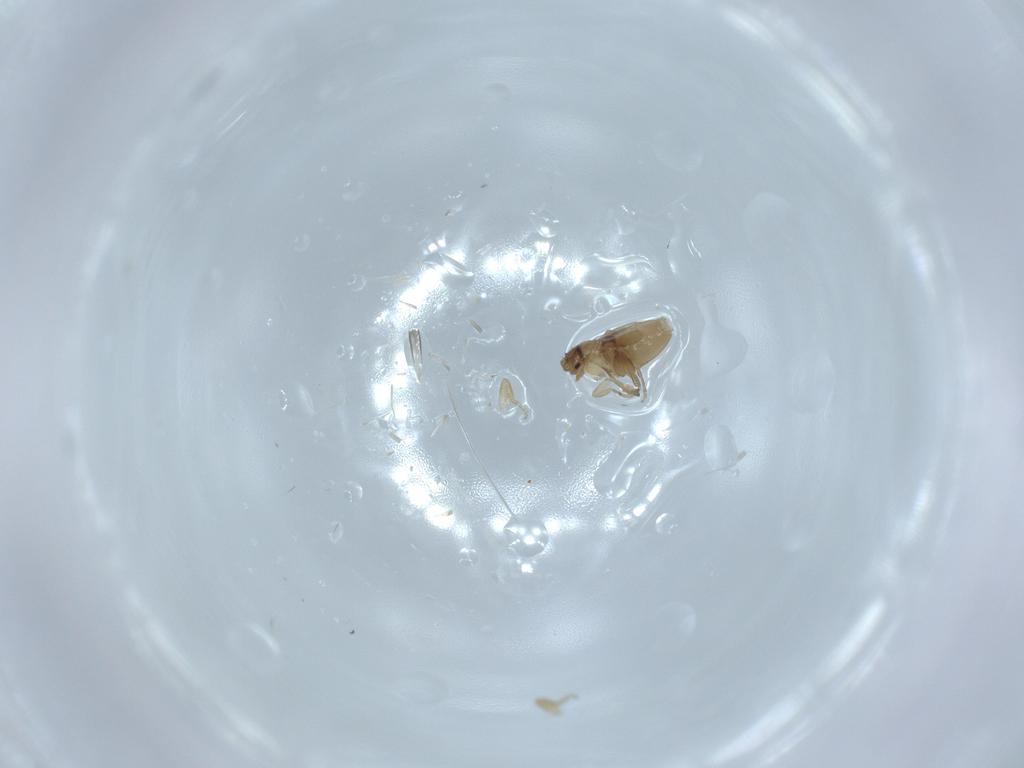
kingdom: Animalia
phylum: Arthropoda
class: Insecta
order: Diptera
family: Phoridae
